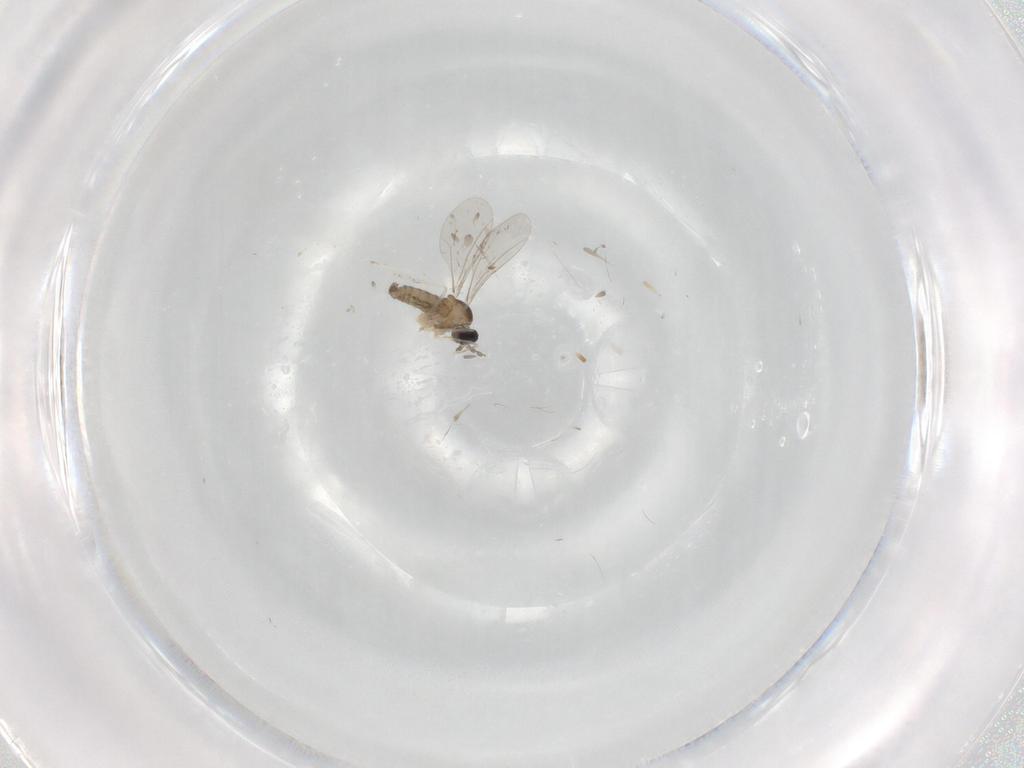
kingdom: Animalia
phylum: Arthropoda
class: Insecta
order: Diptera
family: Cecidomyiidae
